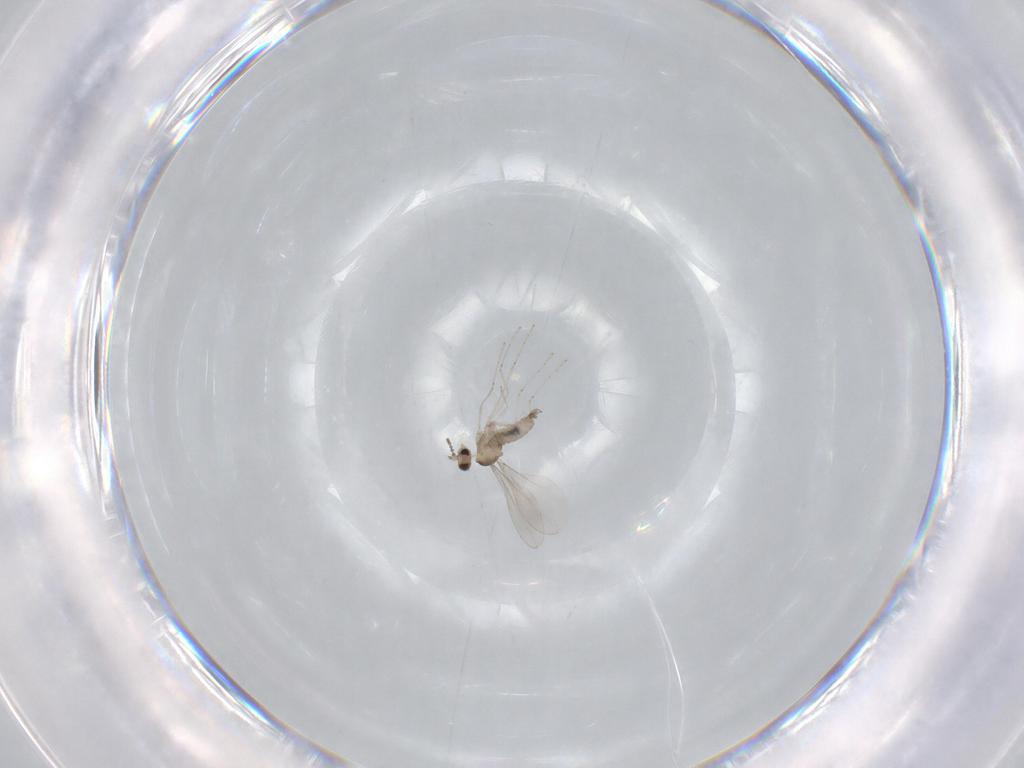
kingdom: Animalia
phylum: Arthropoda
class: Insecta
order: Diptera
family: Cecidomyiidae
